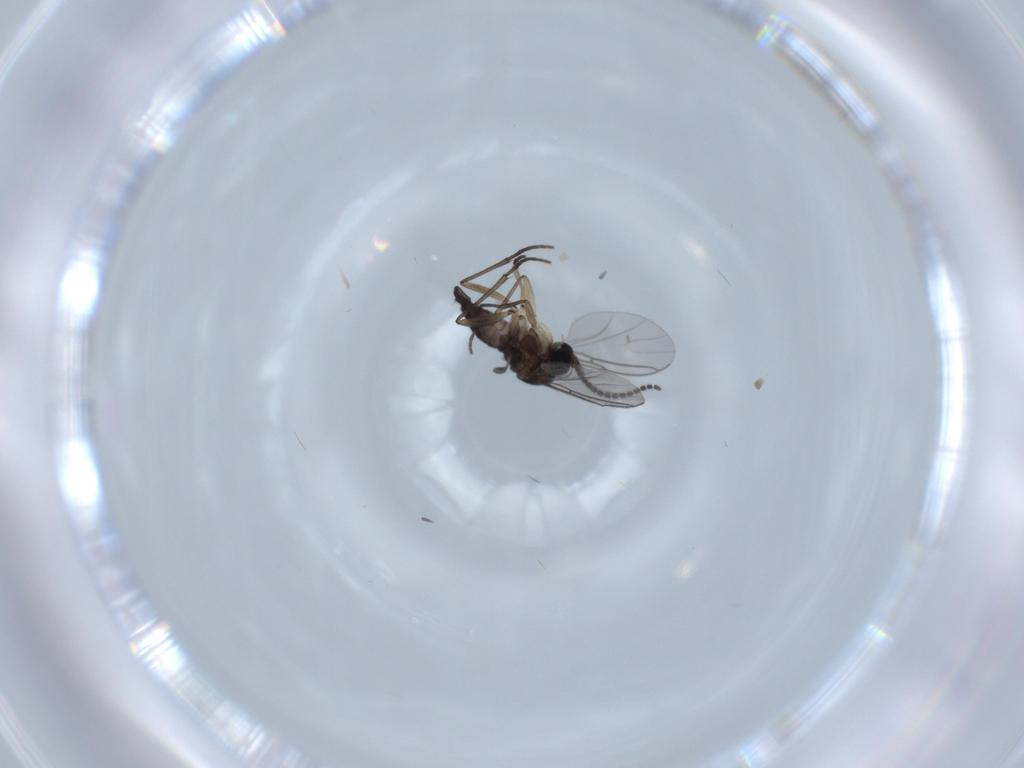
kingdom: Animalia
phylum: Arthropoda
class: Insecta
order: Diptera
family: Sciaridae
